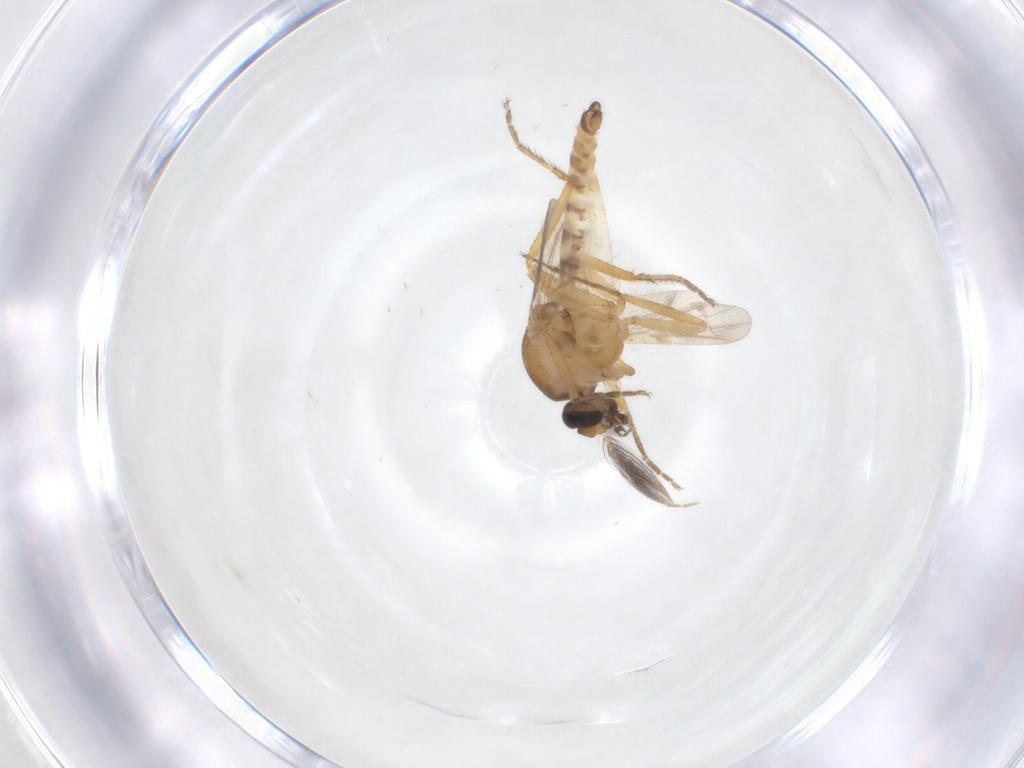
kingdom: Animalia
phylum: Arthropoda
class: Insecta
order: Diptera
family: Ceratopogonidae
